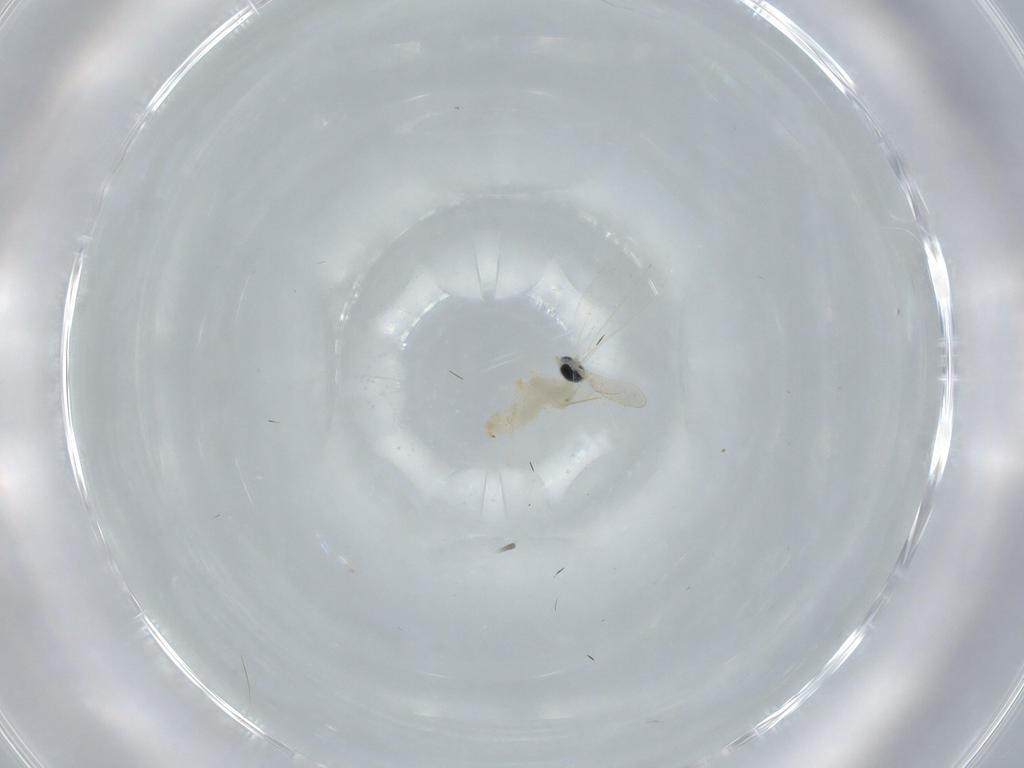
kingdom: Animalia
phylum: Arthropoda
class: Insecta
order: Diptera
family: Cecidomyiidae
